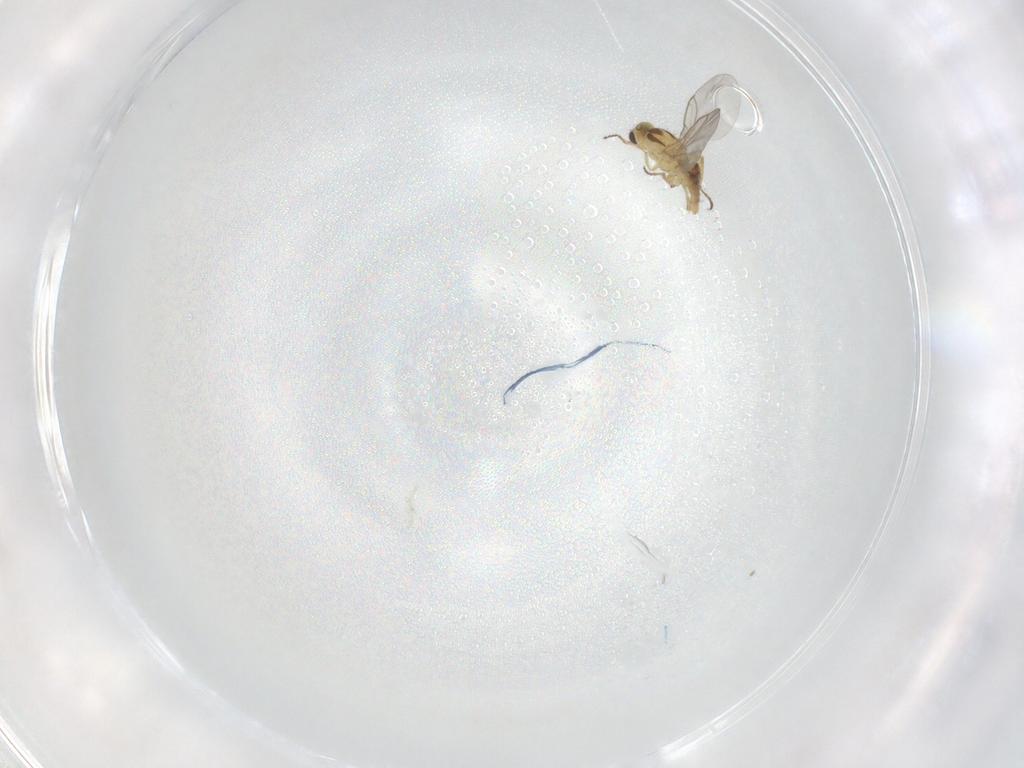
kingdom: Animalia
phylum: Arthropoda
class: Insecta
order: Diptera
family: Agromyzidae
